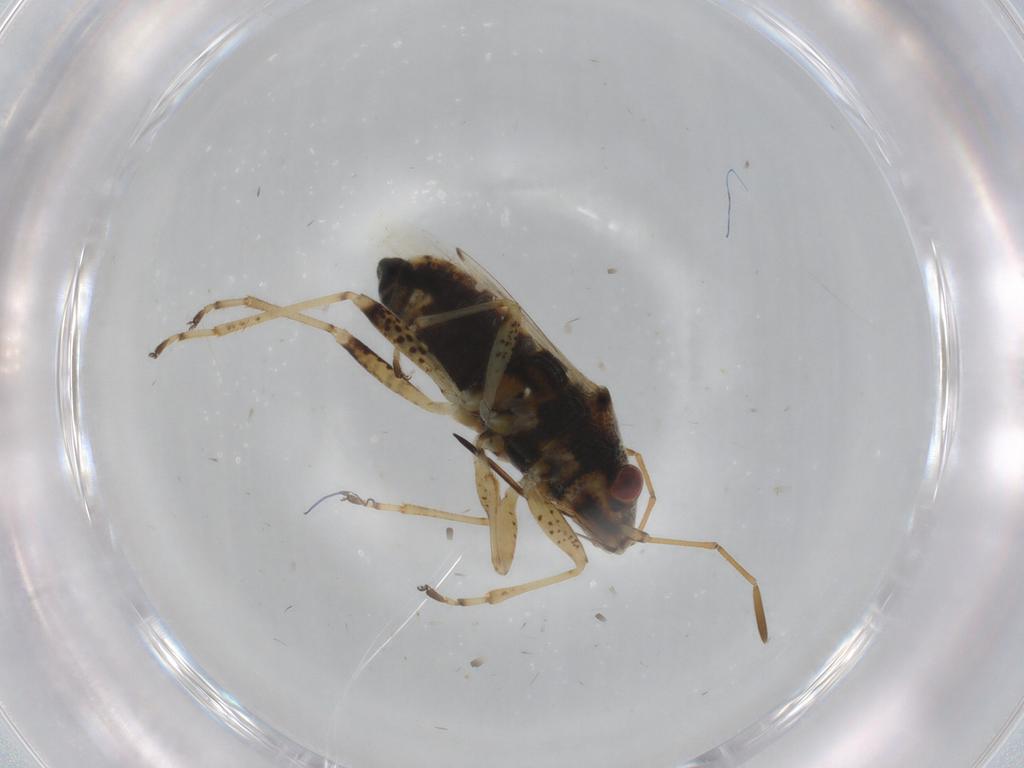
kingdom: Animalia
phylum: Arthropoda
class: Insecta
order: Hemiptera
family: Lygaeidae
